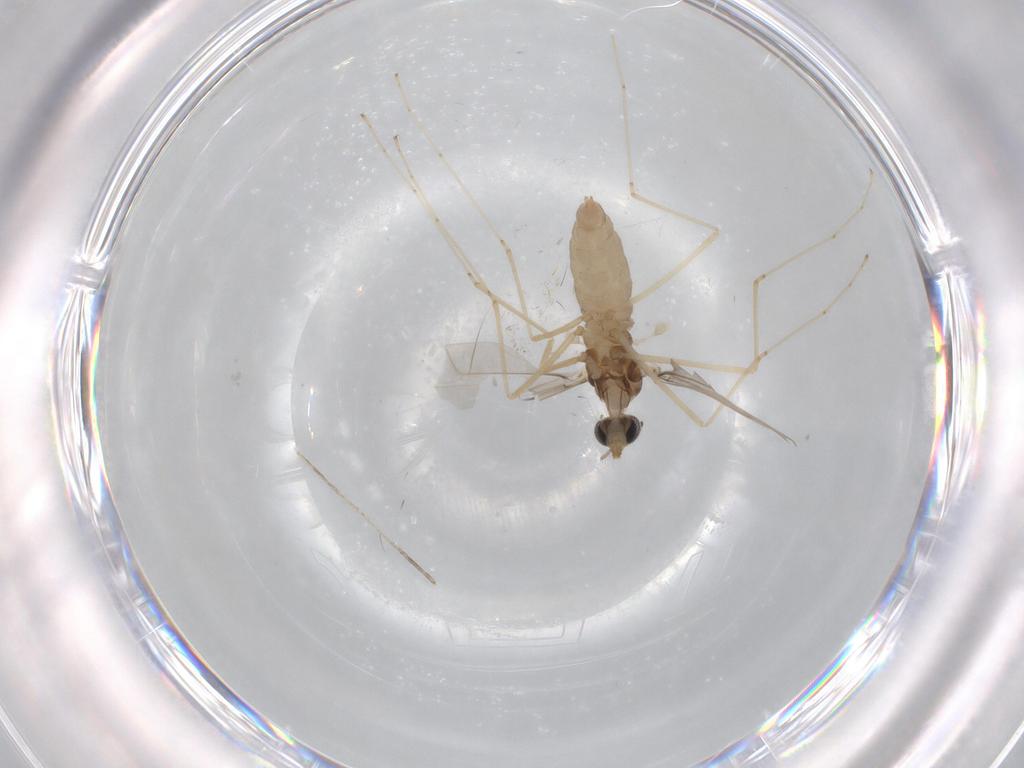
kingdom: Animalia
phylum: Arthropoda
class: Insecta
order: Diptera
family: Cecidomyiidae
